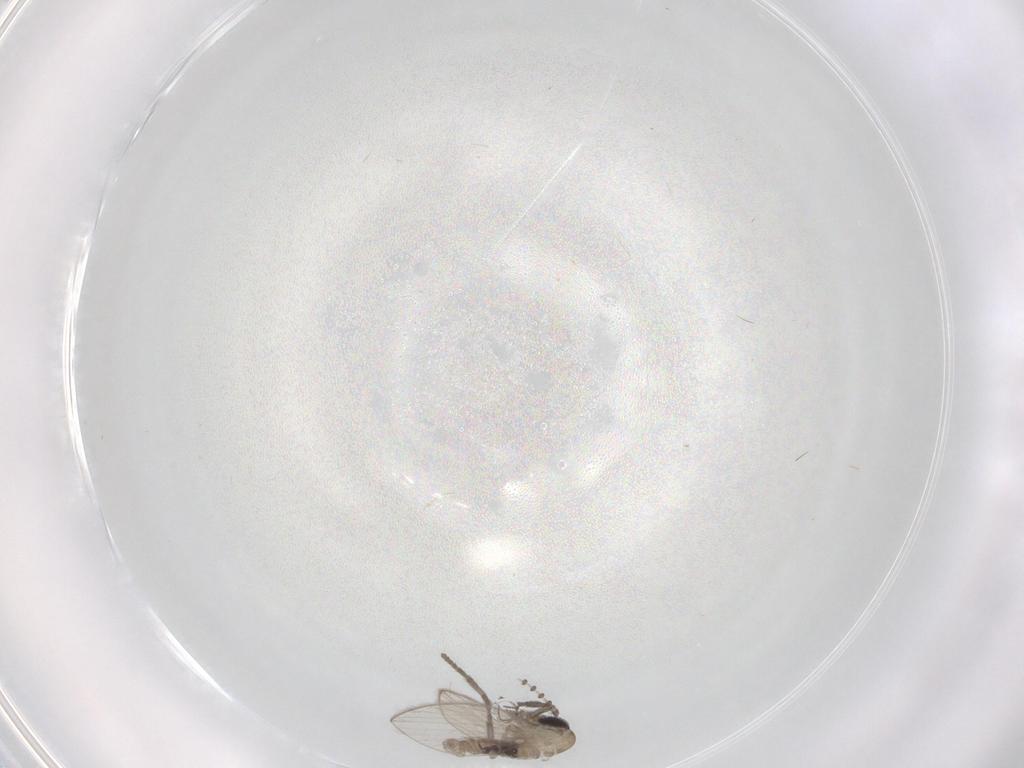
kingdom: Animalia
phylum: Arthropoda
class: Insecta
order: Diptera
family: Psychodidae
